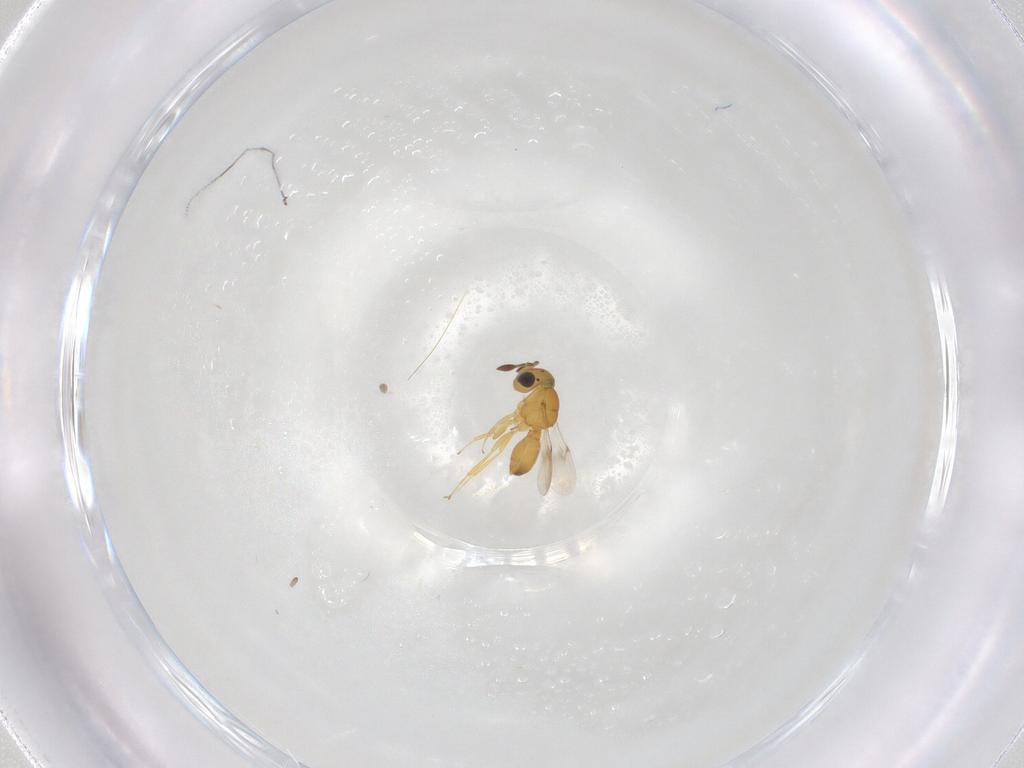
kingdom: Animalia
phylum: Arthropoda
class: Insecta
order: Hymenoptera
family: Scelionidae
